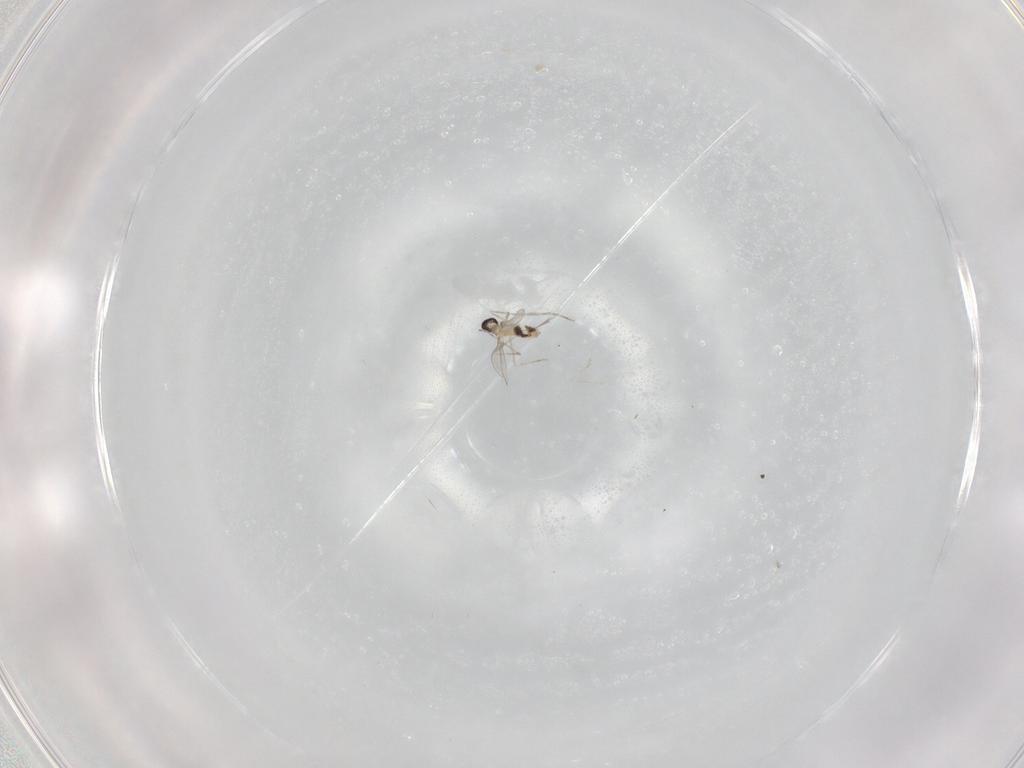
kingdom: Animalia
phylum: Arthropoda
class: Insecta
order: Diptera
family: Cecidomyiidae
